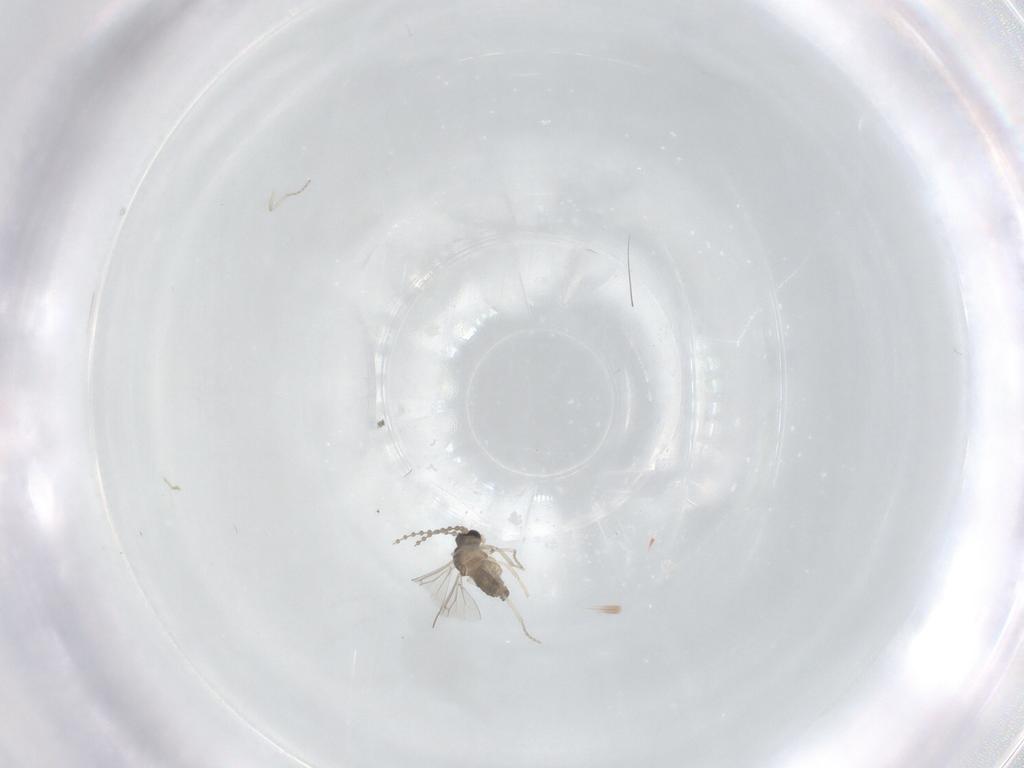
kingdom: Animalia
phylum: Arthropoda
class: Insecta
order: Diptera
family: Cecidomyiidae
